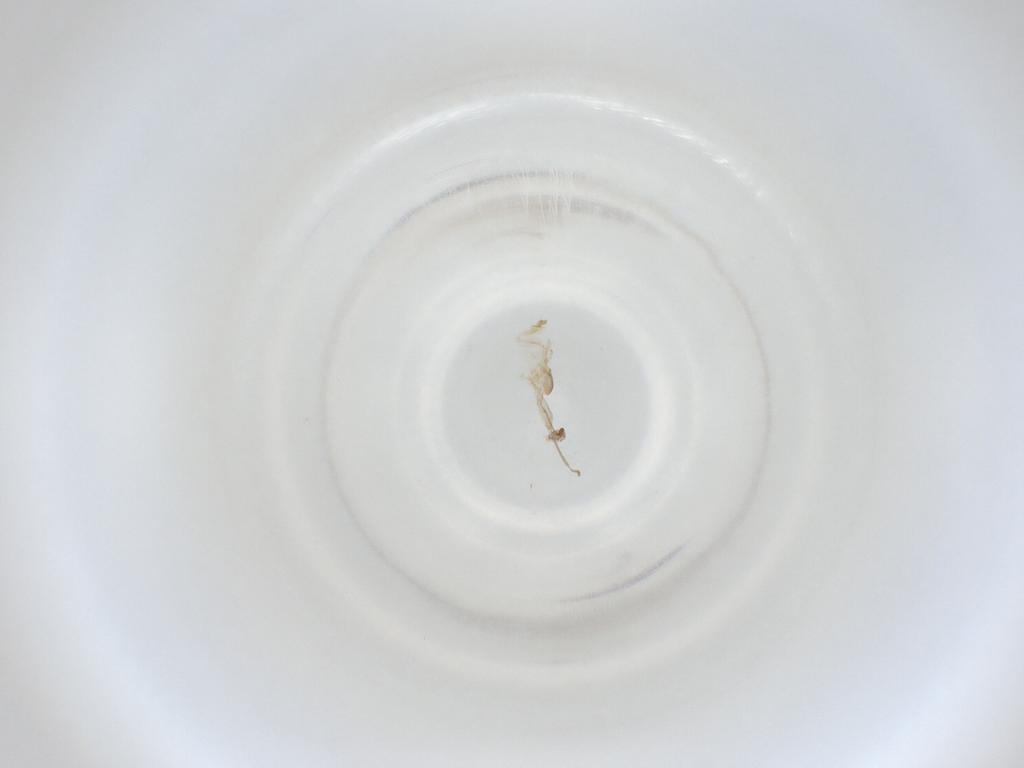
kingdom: Animalia
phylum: Arthropoda
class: Insecta
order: Diptera
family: Cecidomyiidae
